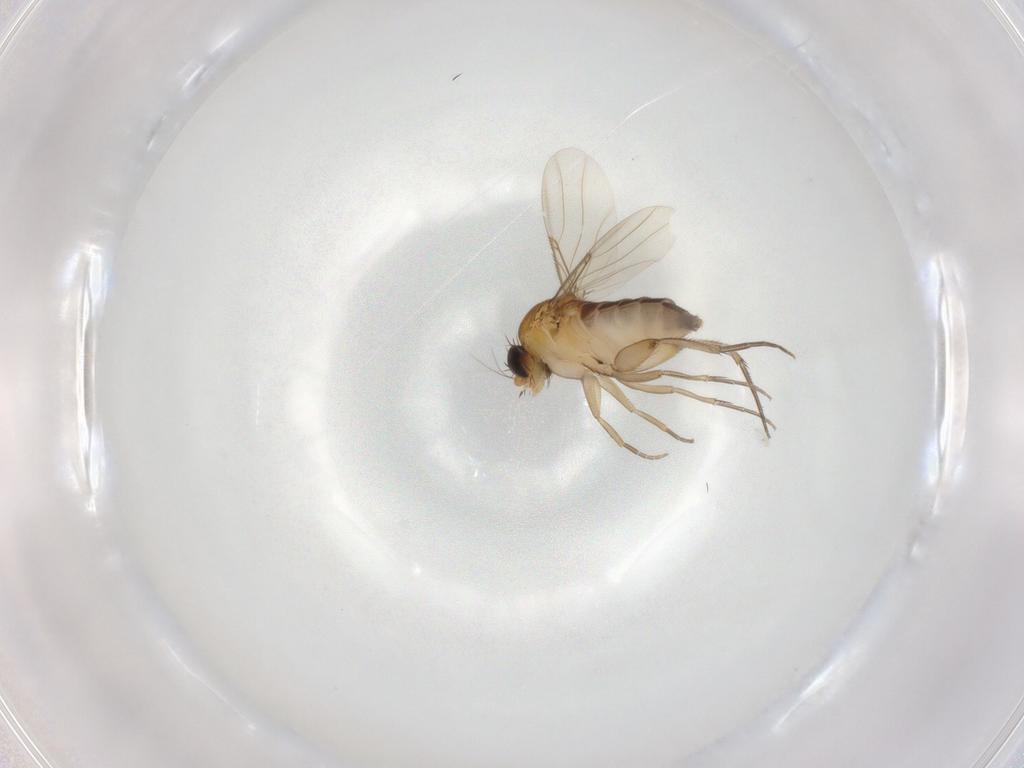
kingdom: Animalia
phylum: Arthropoda
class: Insecta
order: Diptera
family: Phoridae
